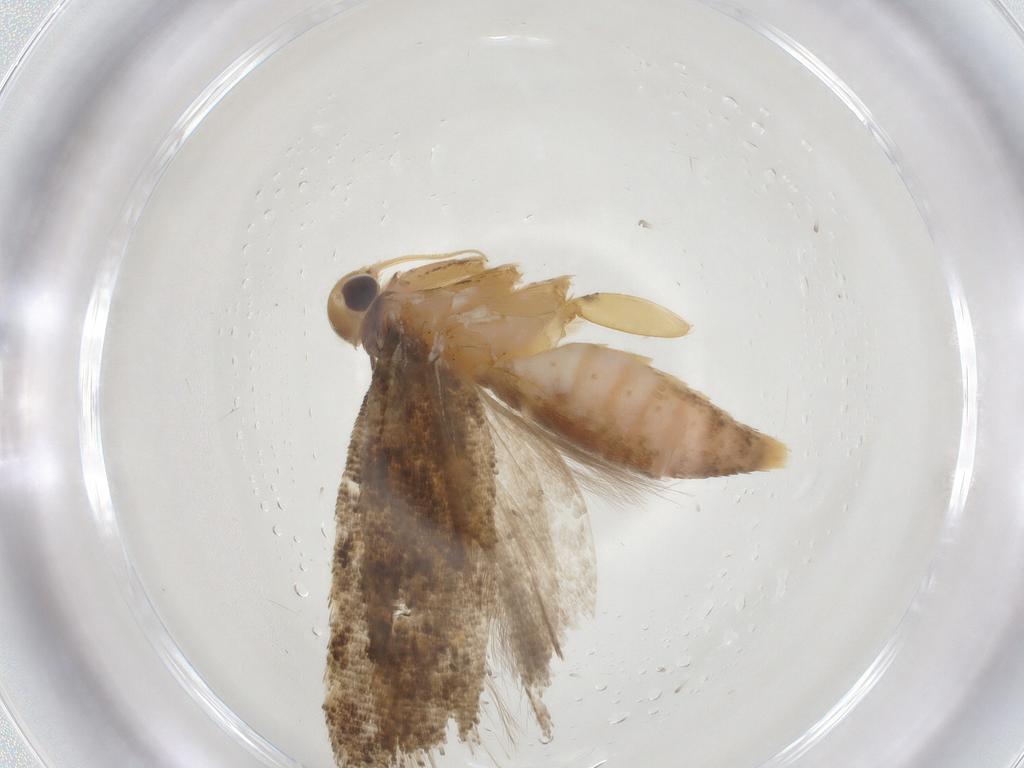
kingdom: Animalia
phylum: Arthropoda
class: Insecta
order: Lepidoptera
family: Gelechiidae
